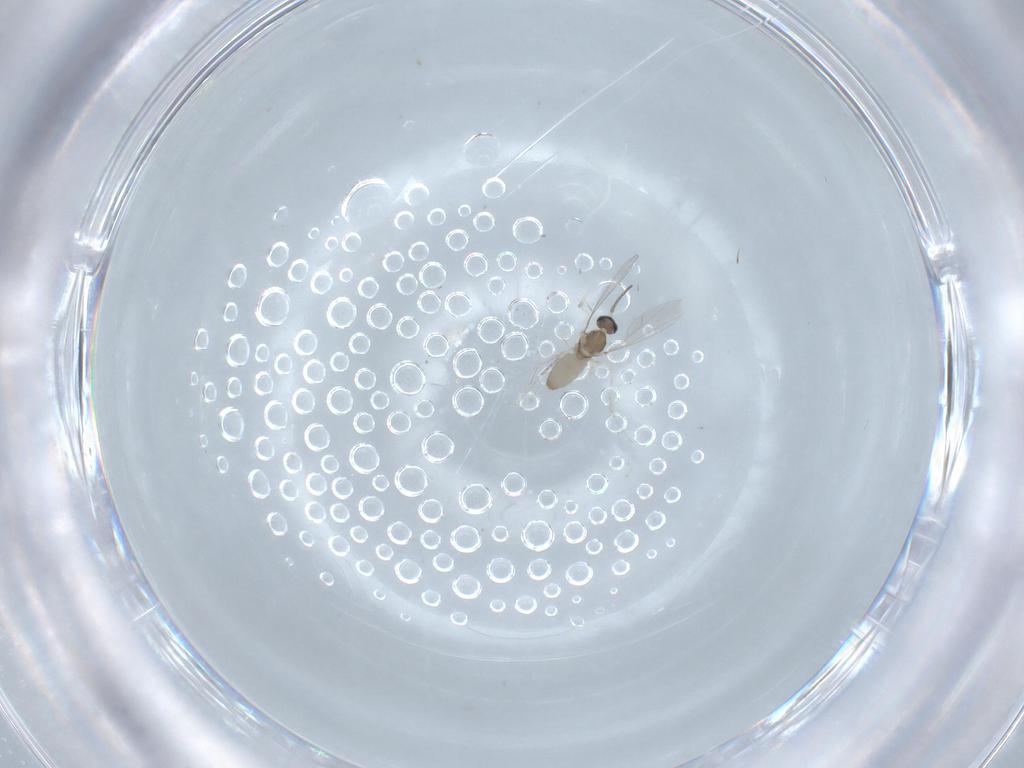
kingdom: Animalia
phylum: Arthropoda
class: Insecta
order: Diptera
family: Cecidomyiidae
